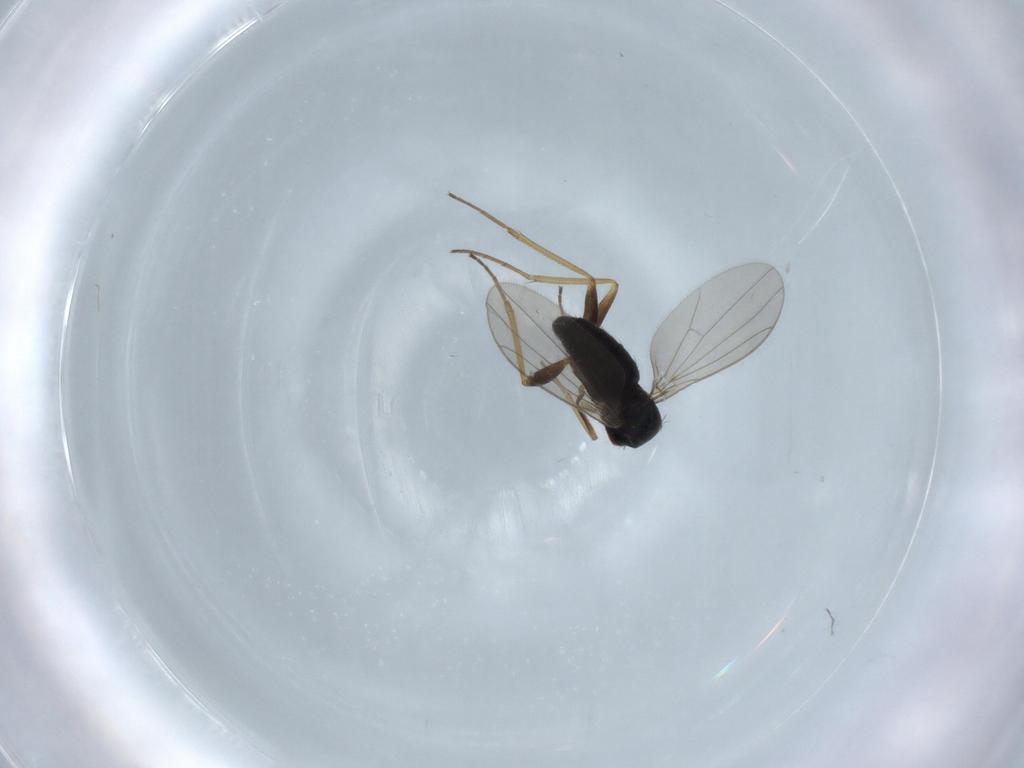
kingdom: Animalia
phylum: Arthropoda
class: Insecta
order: Diptera
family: Dolichopodidae
